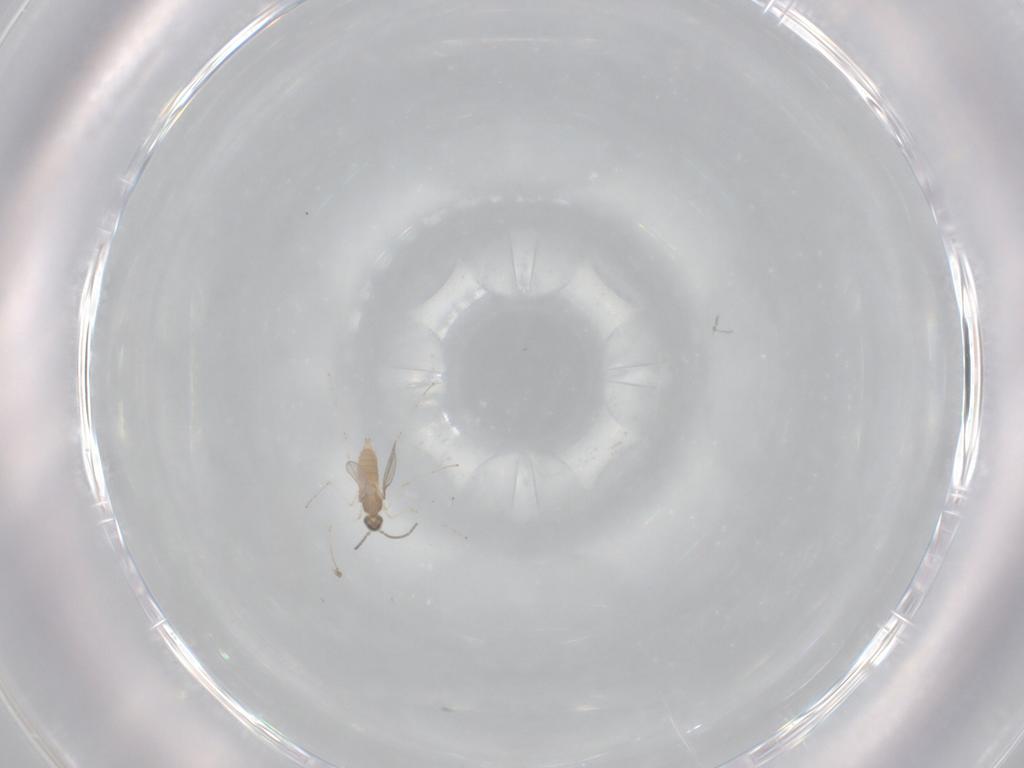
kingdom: Animalia
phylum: Arthropoda
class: Insecta
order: Diptera
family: Cecidomyiidae
